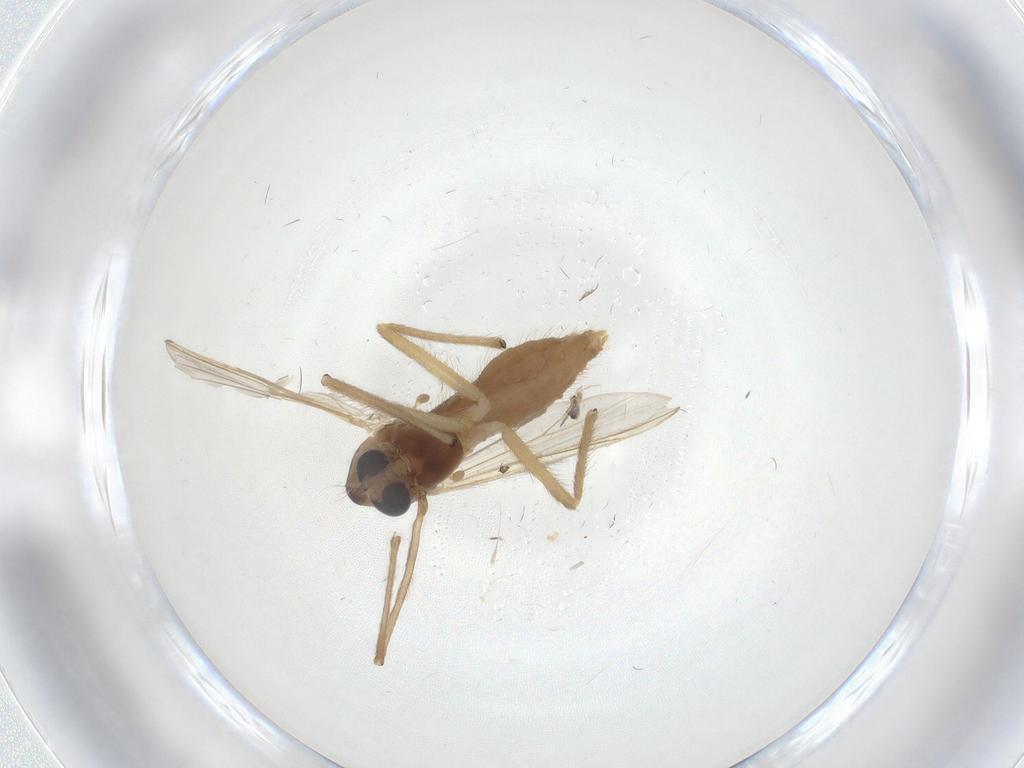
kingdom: Animalia
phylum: Arthropoda
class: Insecta
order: Diptera
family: Chironomidae
